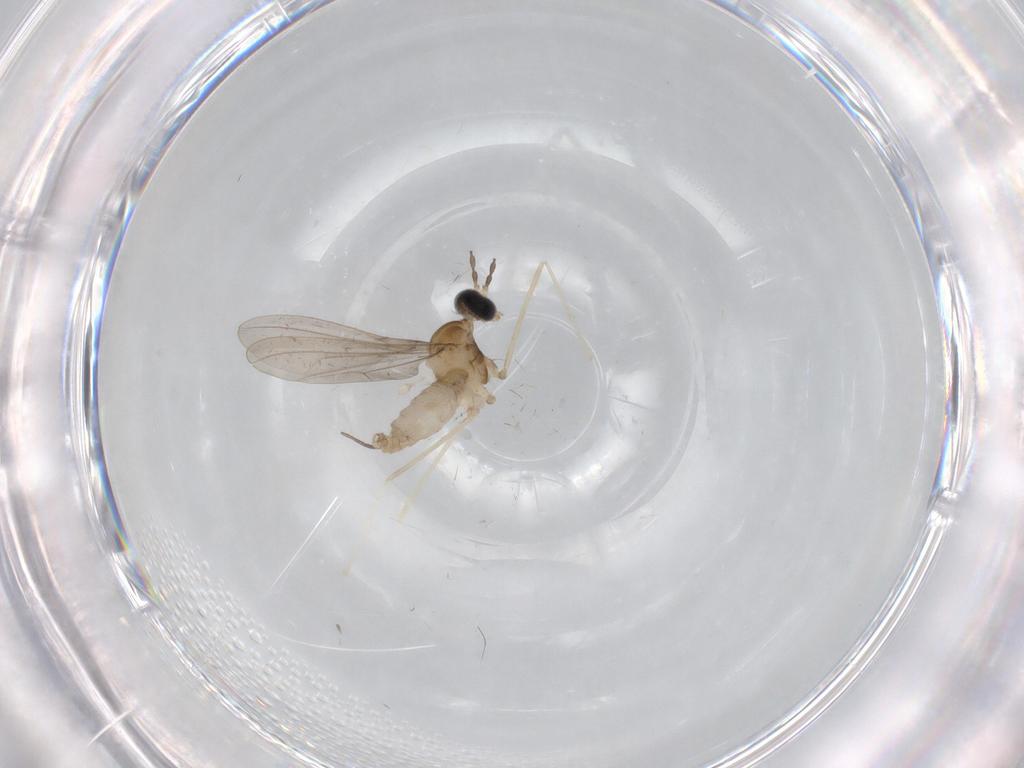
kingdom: Animalia
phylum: Arthropoda
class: Insecta
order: Diptera
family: Cecidomyiidae
